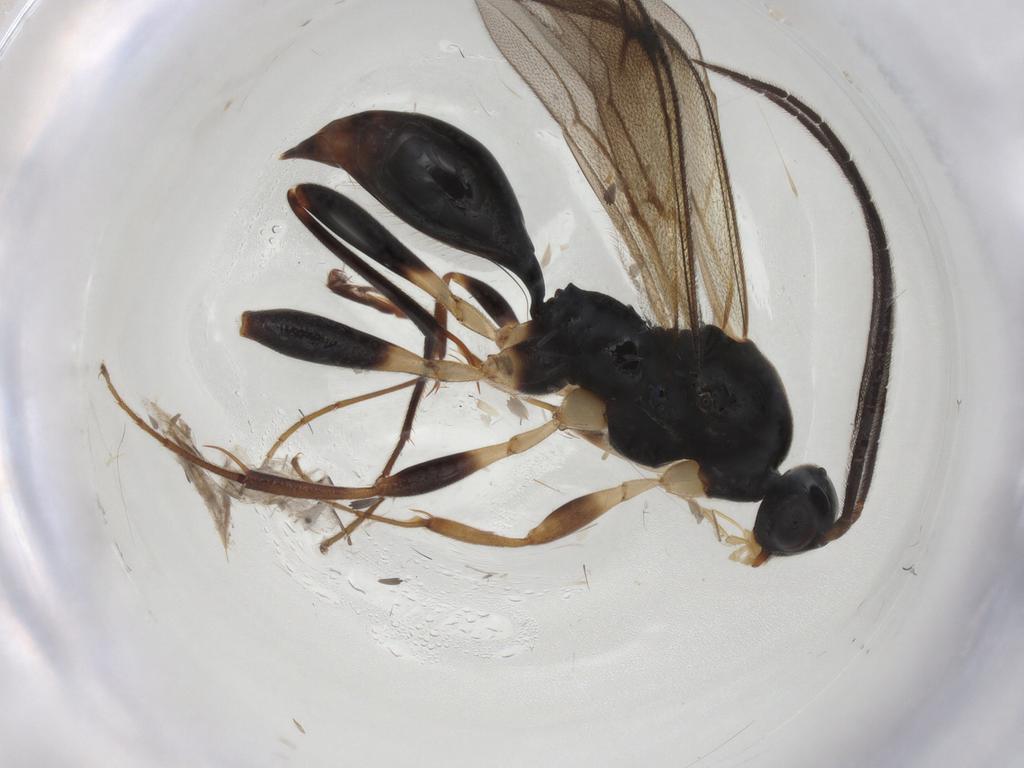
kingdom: Animalia
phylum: Arthropoda
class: Insecta
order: Hymenoptera
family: Proctotrupidae
